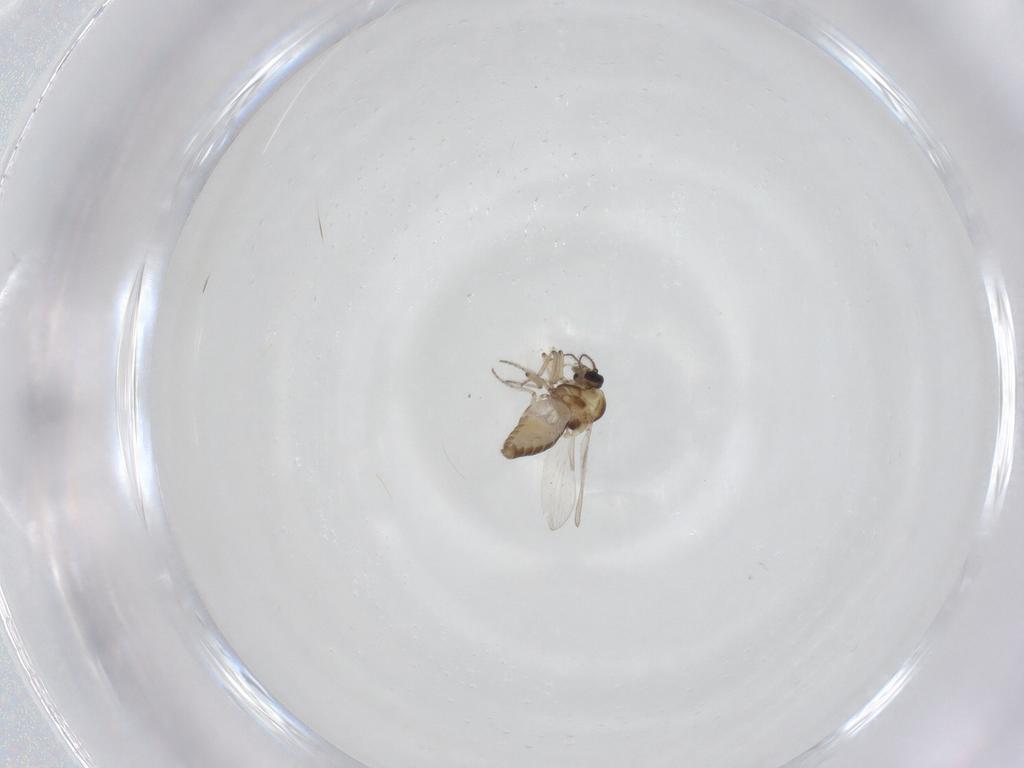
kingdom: Animalia
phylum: Arthropoda
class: Insecta
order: Diptera
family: Ceratopogonidae
